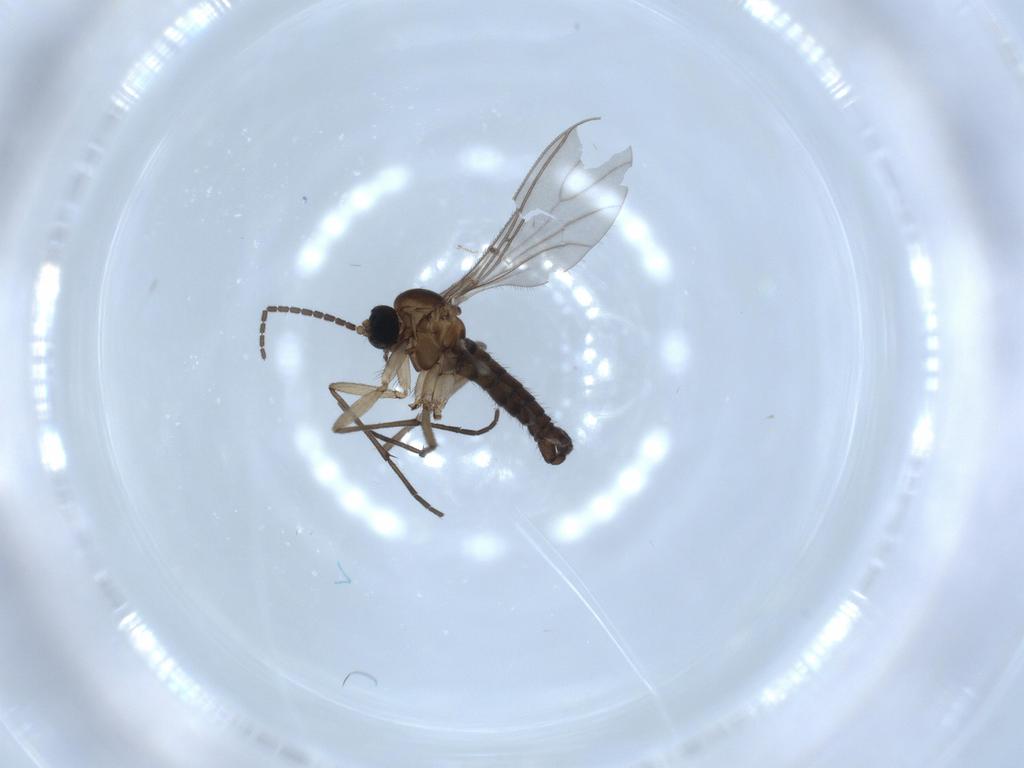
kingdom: Animalia
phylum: Arthropoda
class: Insecta
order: Diptera
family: Sciaridae
